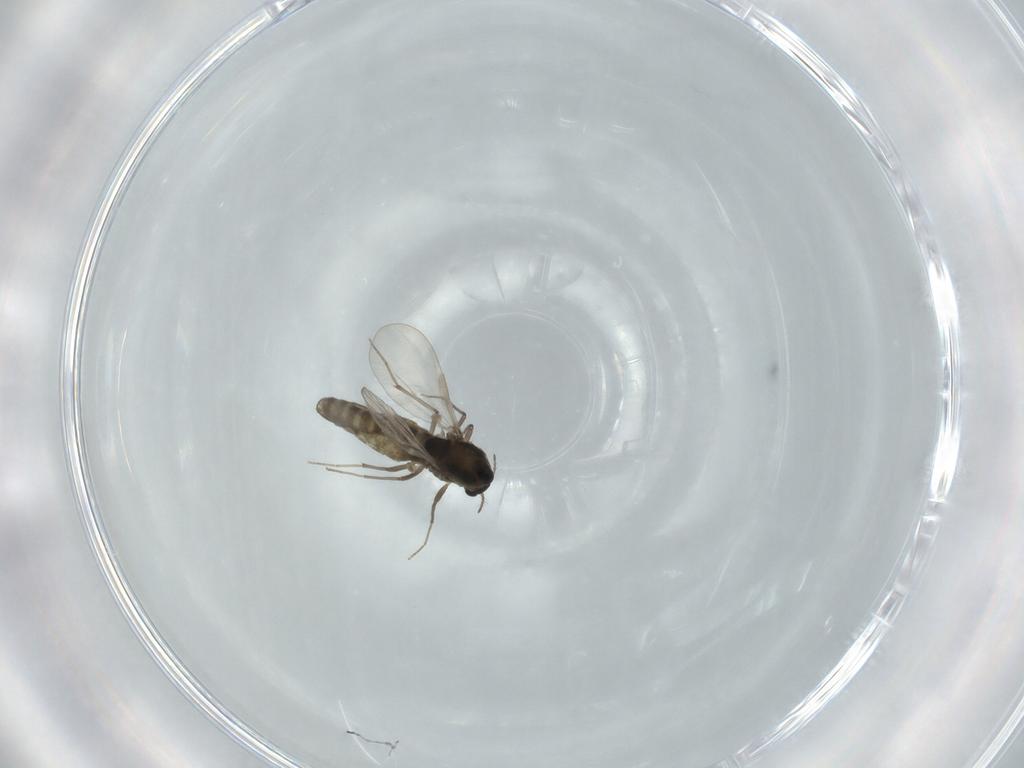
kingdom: Animalia
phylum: Arthropoda
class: Insecta
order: Diptera
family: Chironomidae
